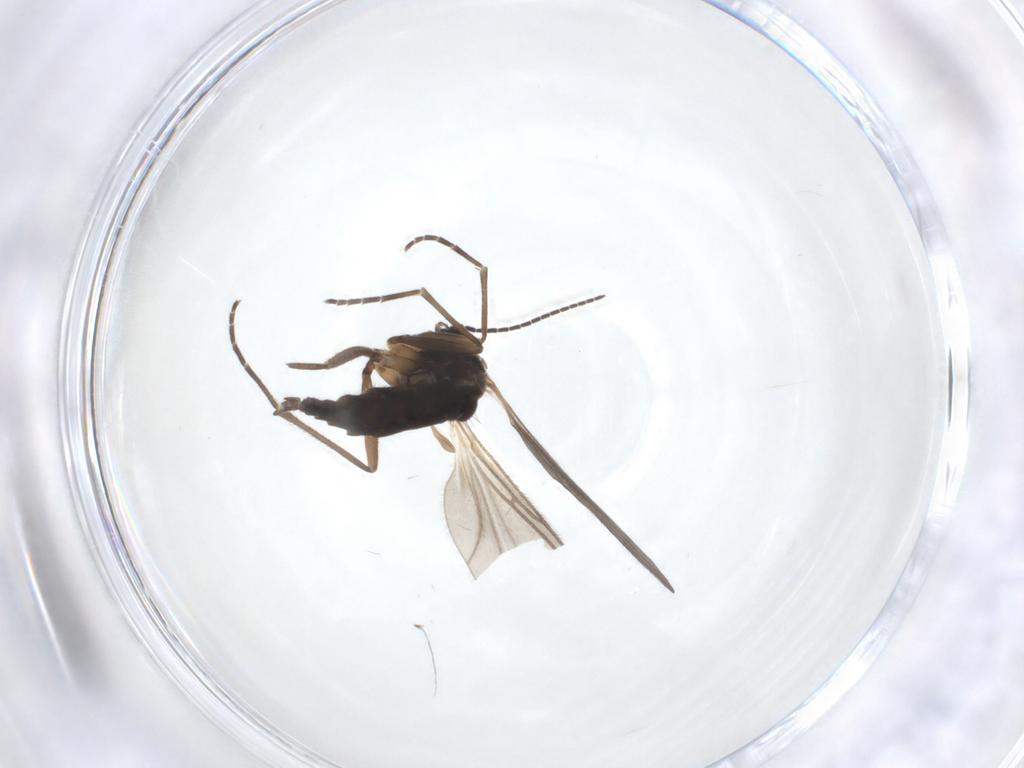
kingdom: Animalia
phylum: Arthropoda
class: Insecta
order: Diptera
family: Sciaridae
